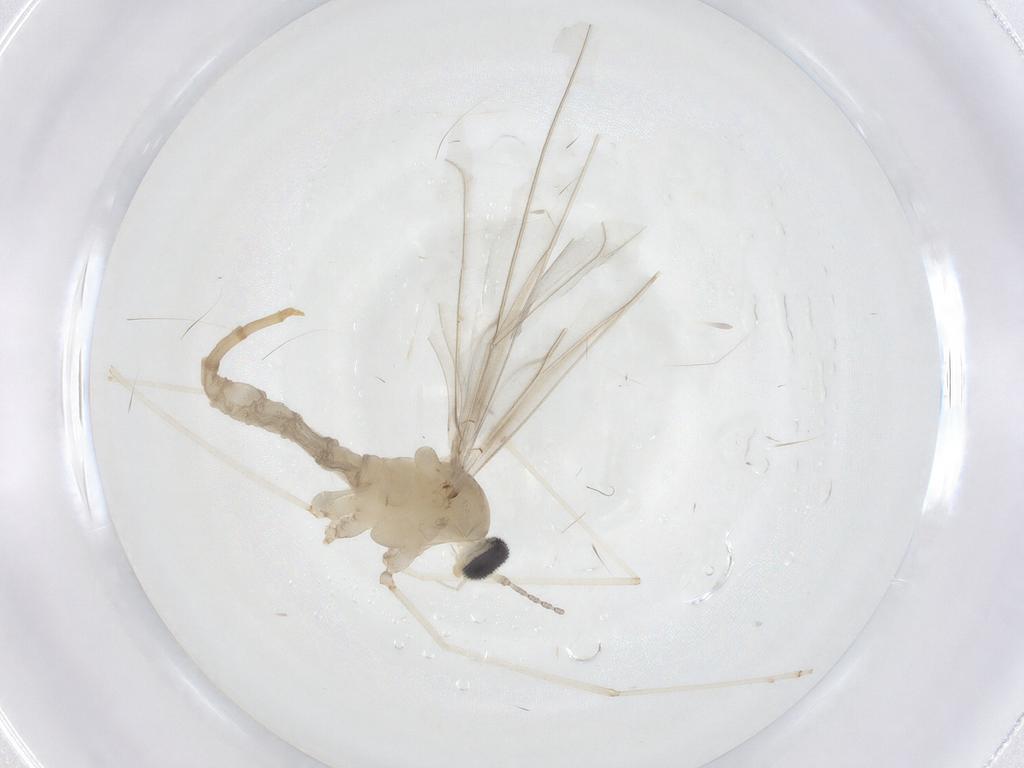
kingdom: Animalia
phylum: Arthropoda
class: Insecta
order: Diptera
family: Cecidomyiidae
